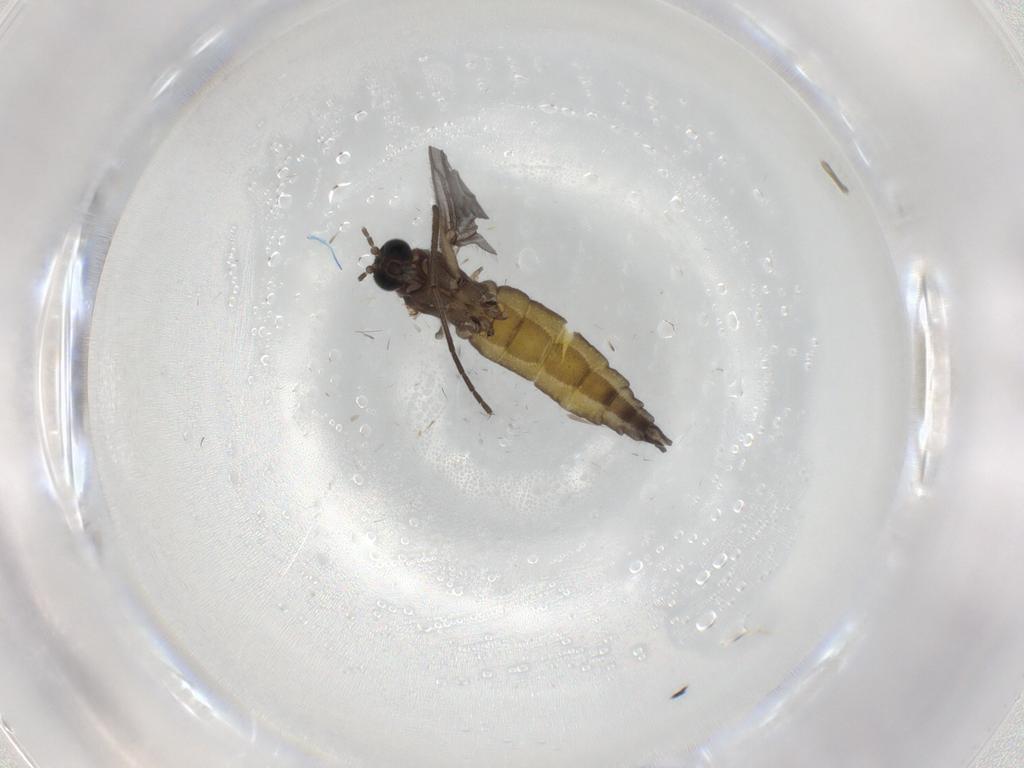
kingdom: Animalia
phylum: Arthropoda
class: Insecta
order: Diptera
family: Sciaridae
